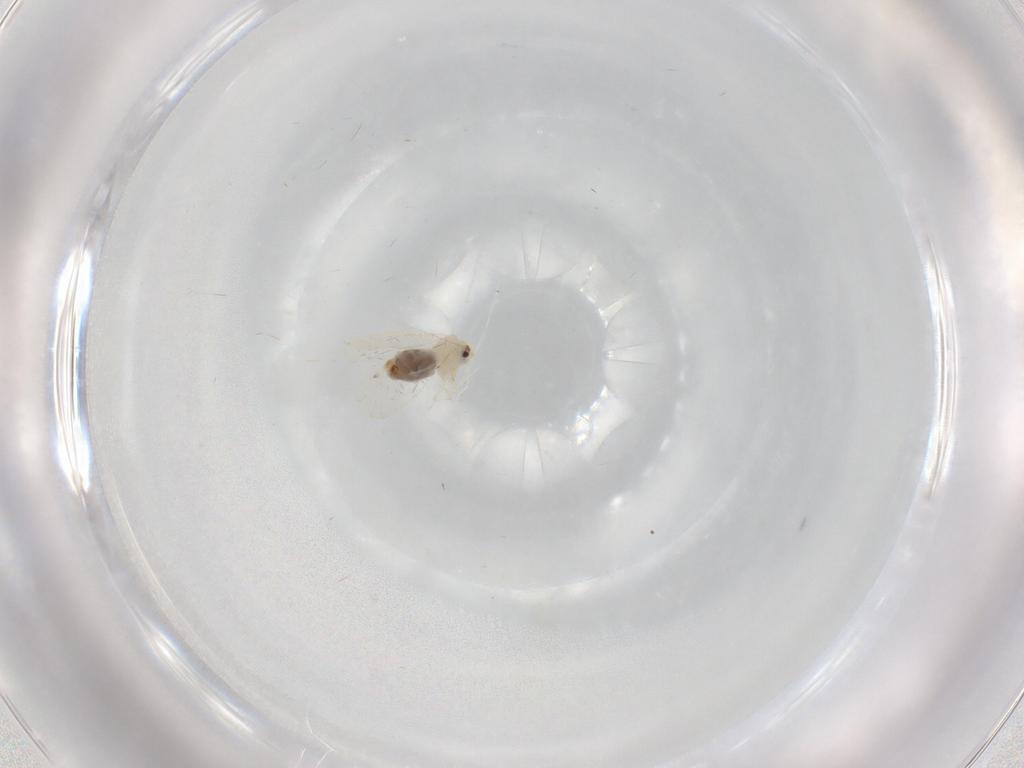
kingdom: Animalia
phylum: Arthropoda
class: Insecta
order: Hemiptera
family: Aleyrodidae
